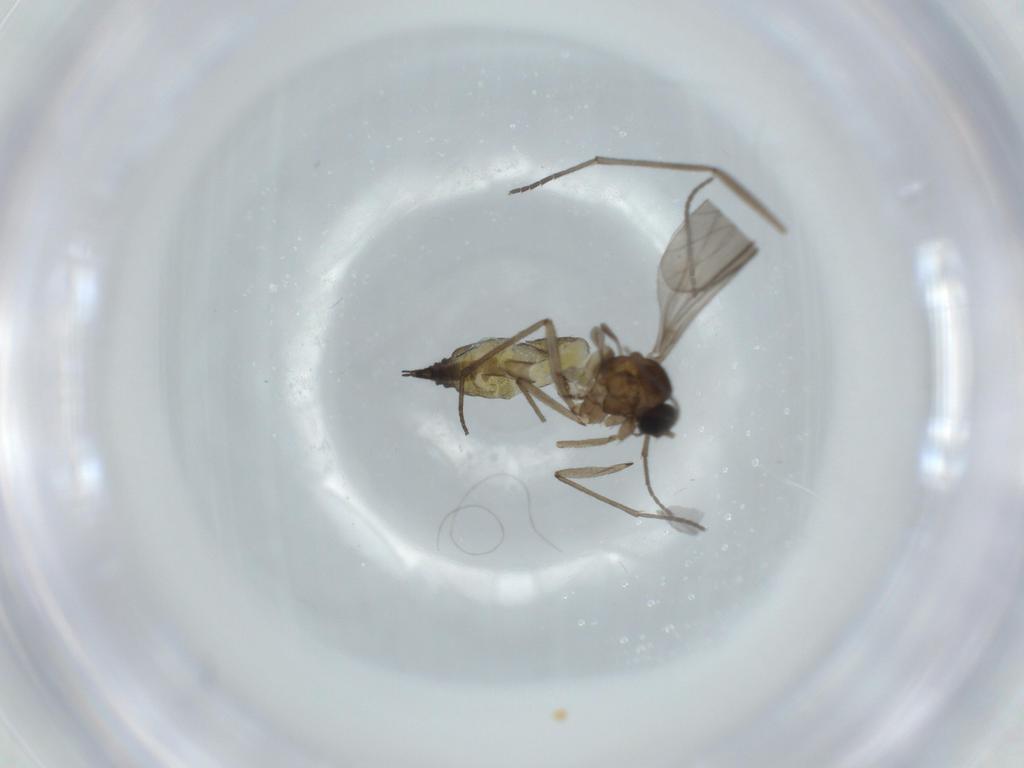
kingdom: Animalia
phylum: Arthropoda
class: Insecta
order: Diptera
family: Sciaridae
